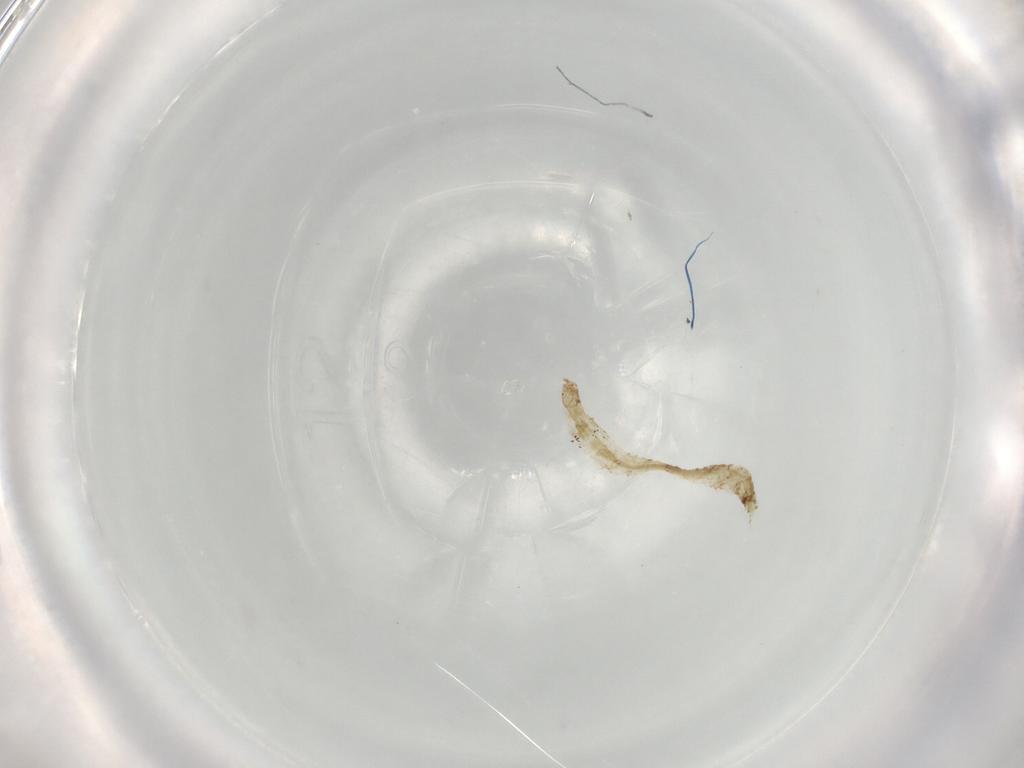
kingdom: Animalia
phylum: Arthropoda
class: Insecta
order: Diptera
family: Chironomidae
